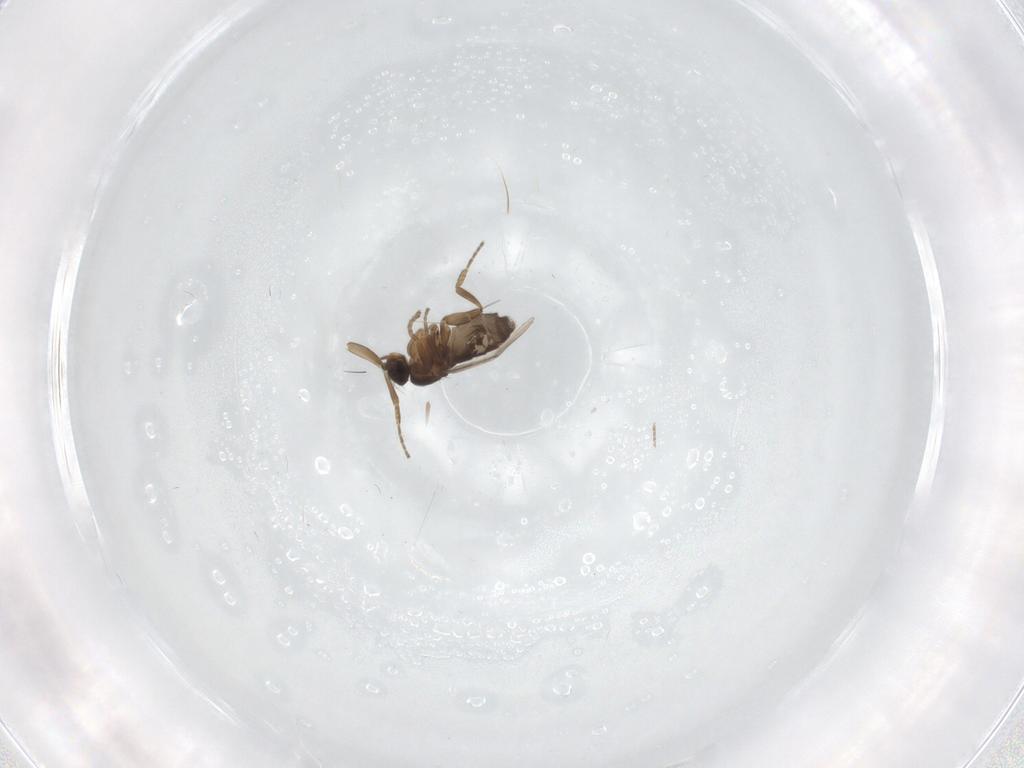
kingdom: Animalia
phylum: Arthropoda
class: Insecta
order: Diptera
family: Phoridae
